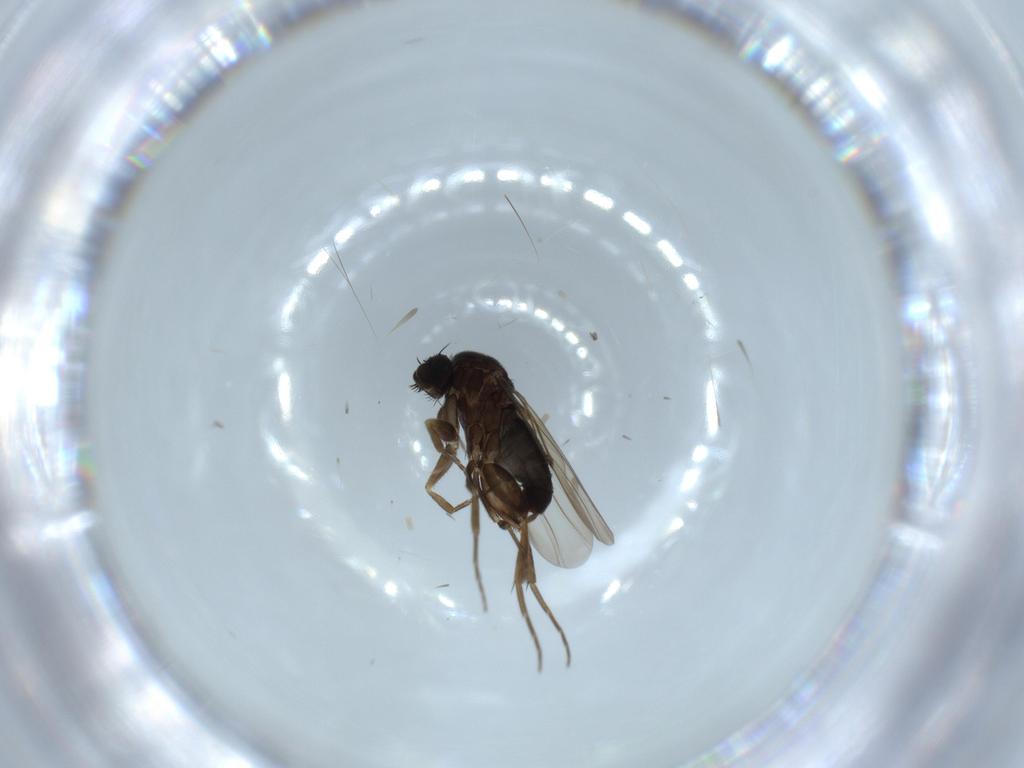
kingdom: Animalia
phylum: Arthropoda
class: Insecta
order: Diptera
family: Phoridae
